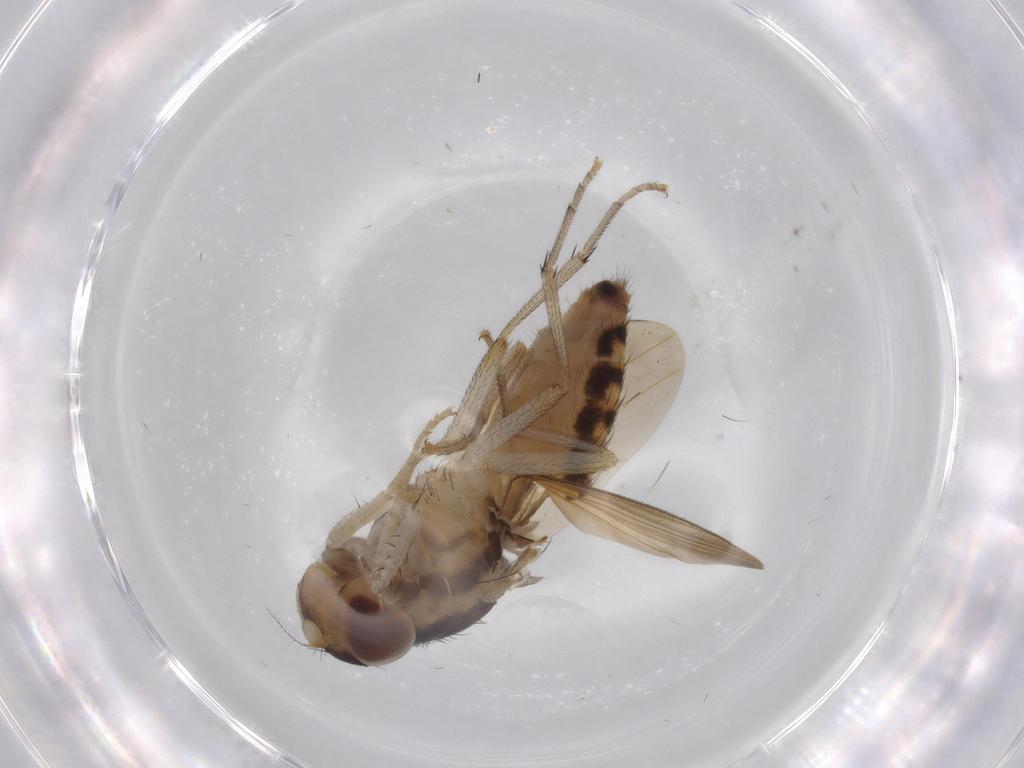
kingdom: Animalia
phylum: Arthropoda
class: Insecta
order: Diptera
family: Lauxaniidae
